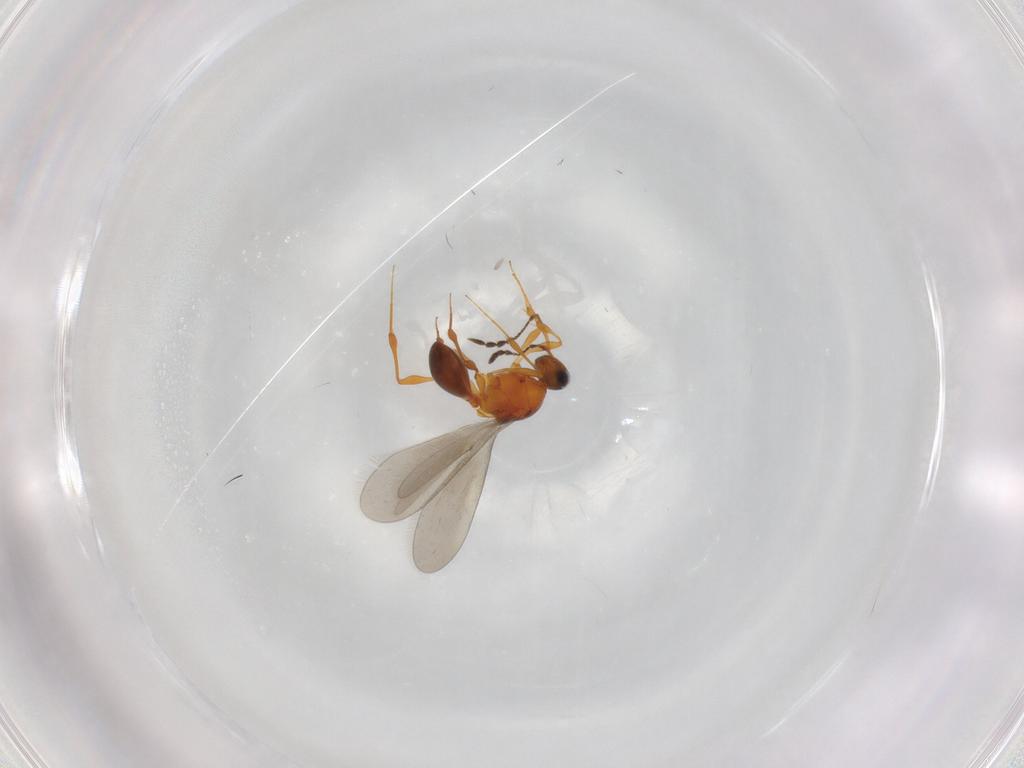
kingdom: Animalia
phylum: Arthropoda
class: Insecta
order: Hymenoptera
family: Platygastridae
